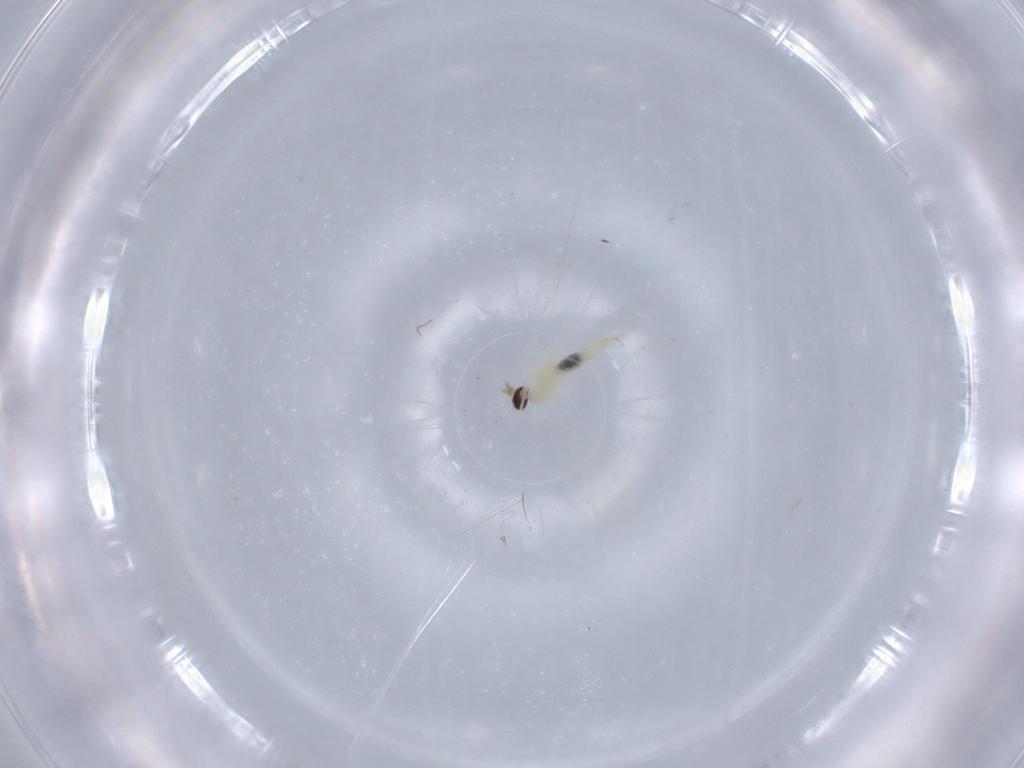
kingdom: Animalia
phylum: Arthropoda
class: Insecta
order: Diptera
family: Cecidomyiidae
